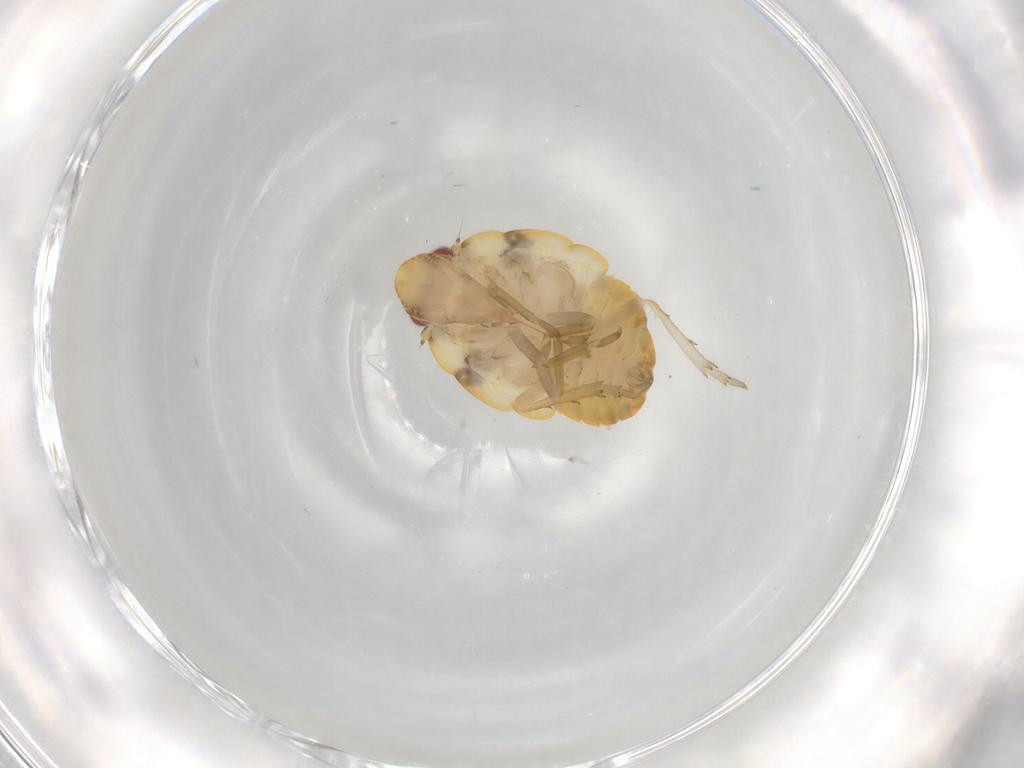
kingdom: Animalia
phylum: Arthropoda
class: Insecta
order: Hemiptera
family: Flatidae
